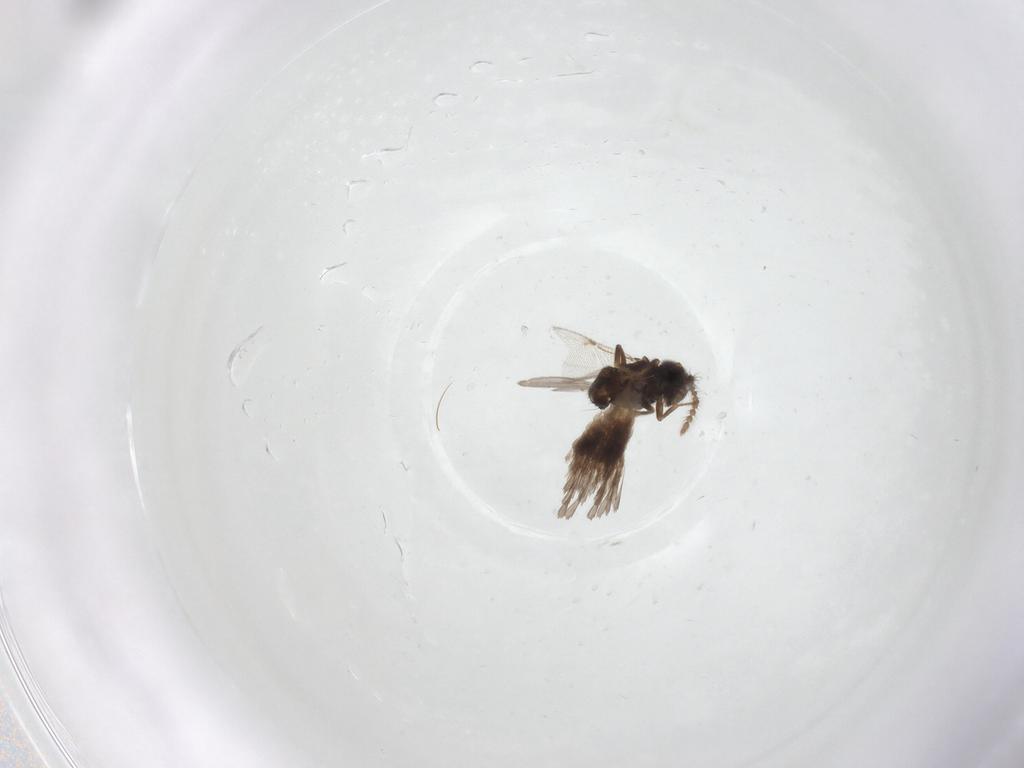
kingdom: Animalia
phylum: Arthropoda
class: Insecta
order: Diptera
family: Cecidomyiidae
